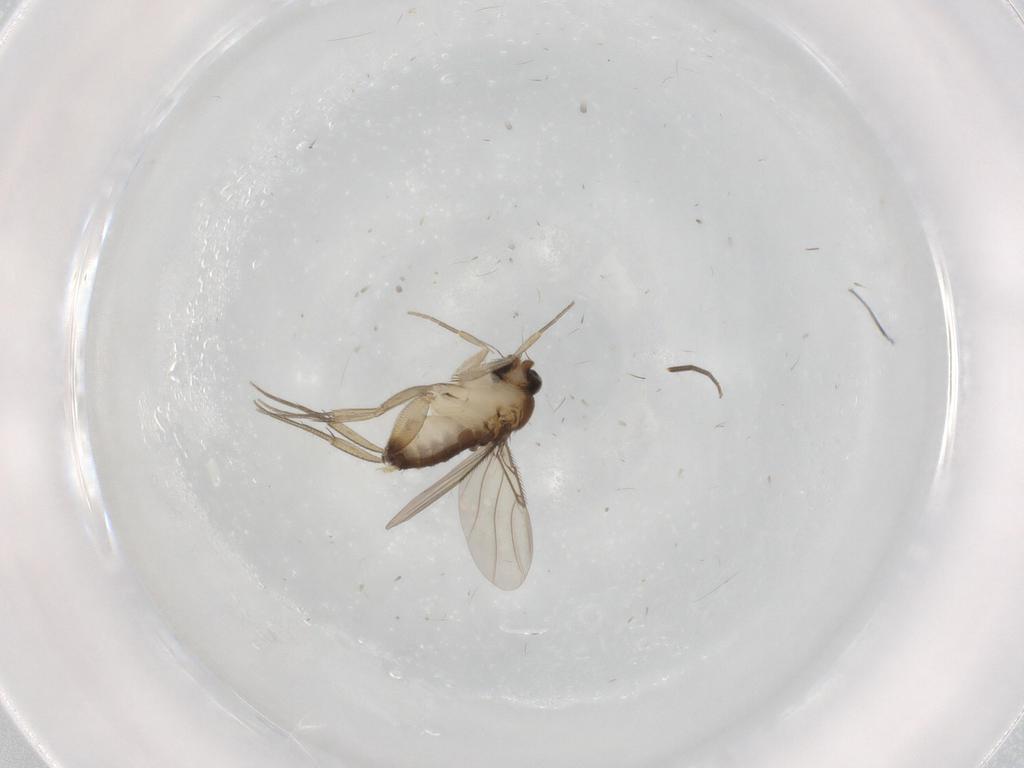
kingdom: Animalia
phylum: Arthropoda
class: Insecta
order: Diptera
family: Phoridae
